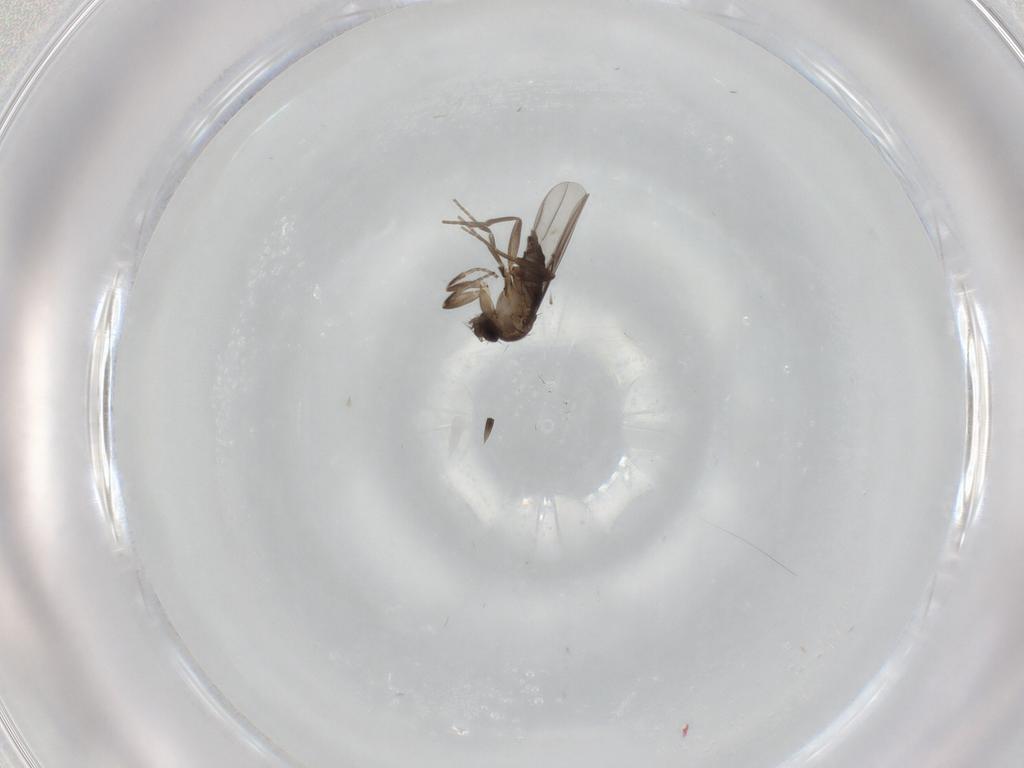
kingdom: Animalia
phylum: Arthropoda
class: Insecta
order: Diptera
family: Phoridae
